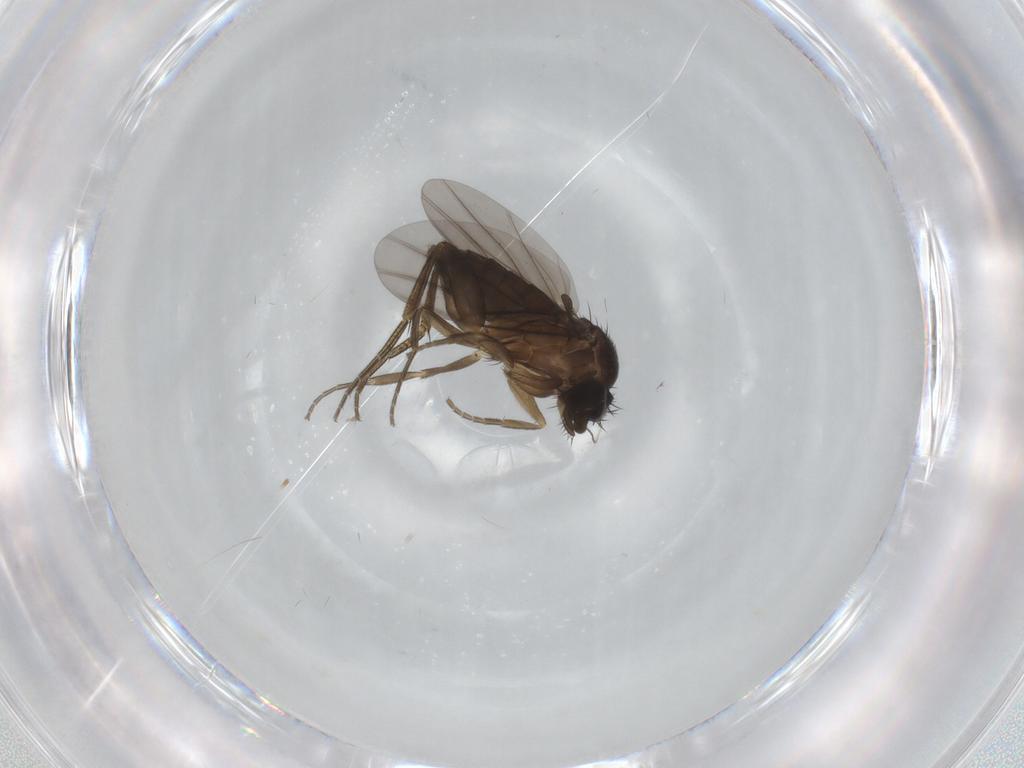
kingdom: Animalia
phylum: Arthropoda
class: Insecta
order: Diptera
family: Phoridae
